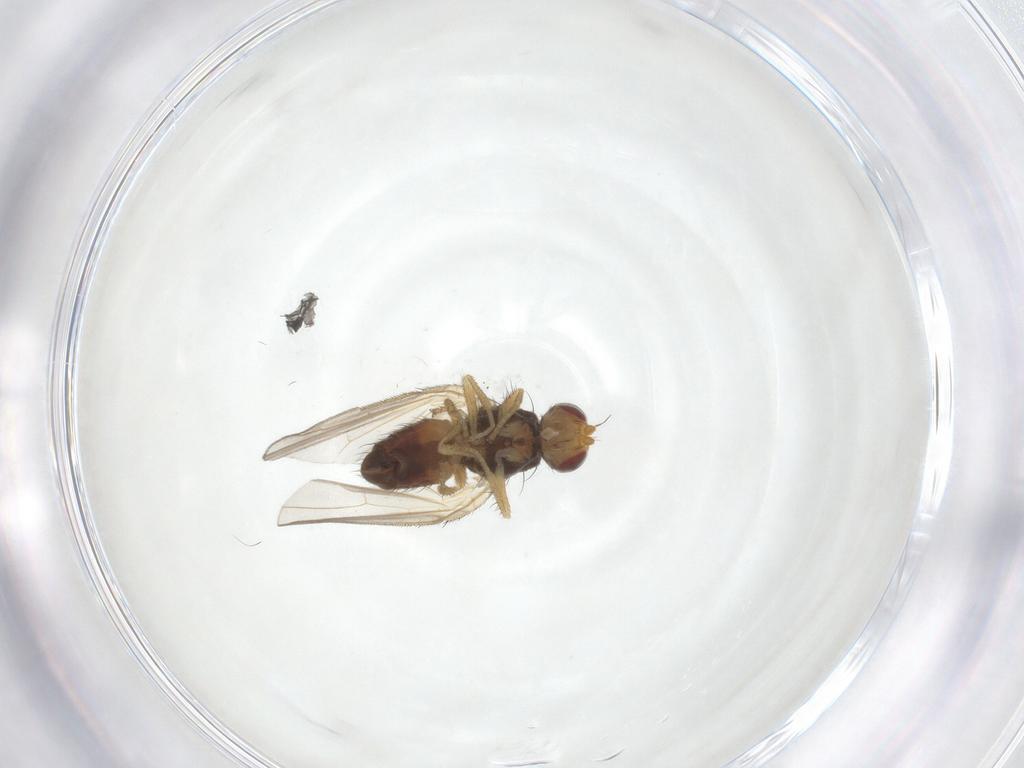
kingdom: Animalia
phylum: Arthropoda
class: Insecta
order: Diptera
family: Heleomyzidae
